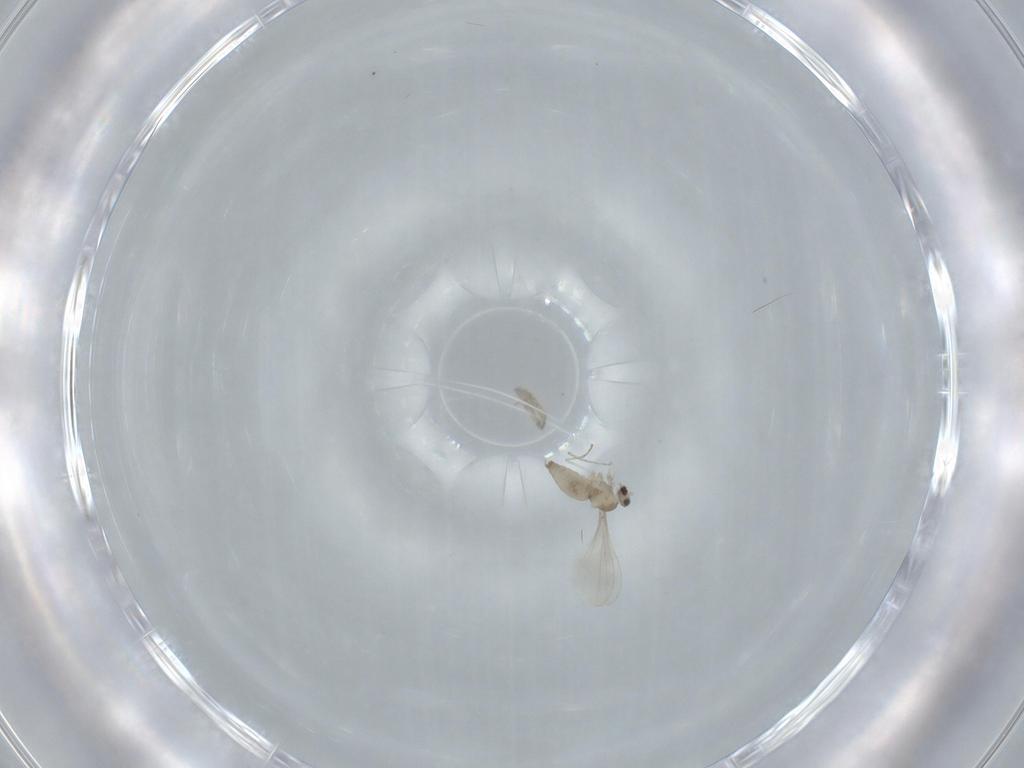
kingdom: Animalia
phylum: Arthropoda
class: Insecta
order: Diptera
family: Cecidomyiidae
